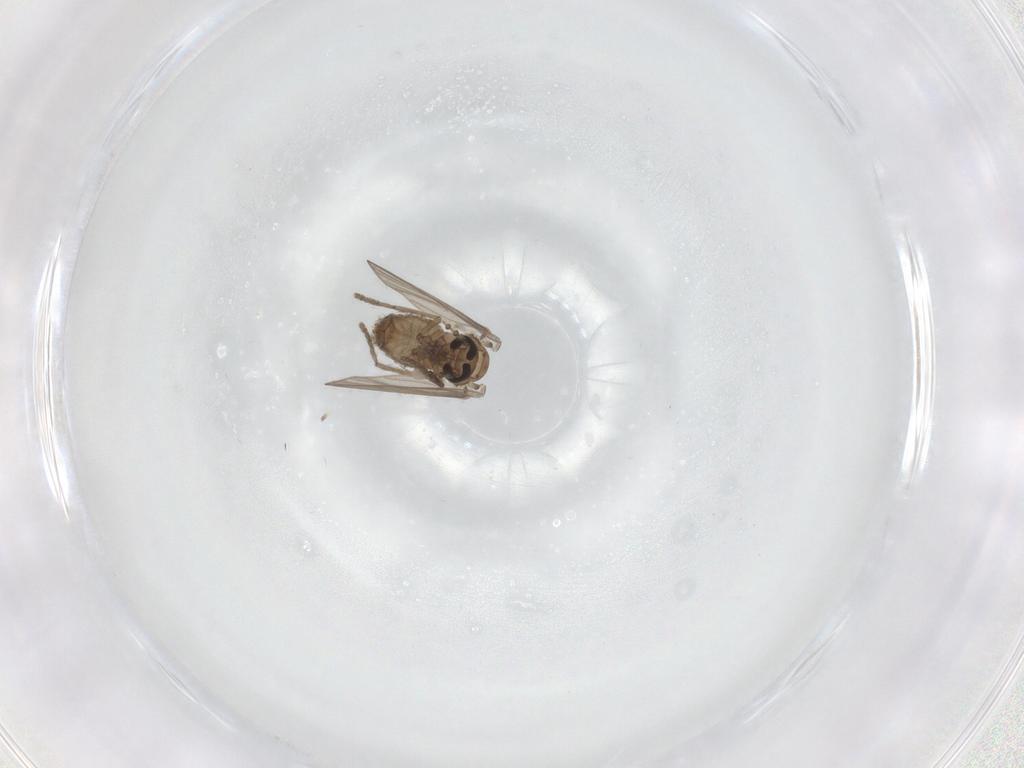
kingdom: Animalia
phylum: Arthropoda
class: Insecta
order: Diptera
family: Psychodidae
